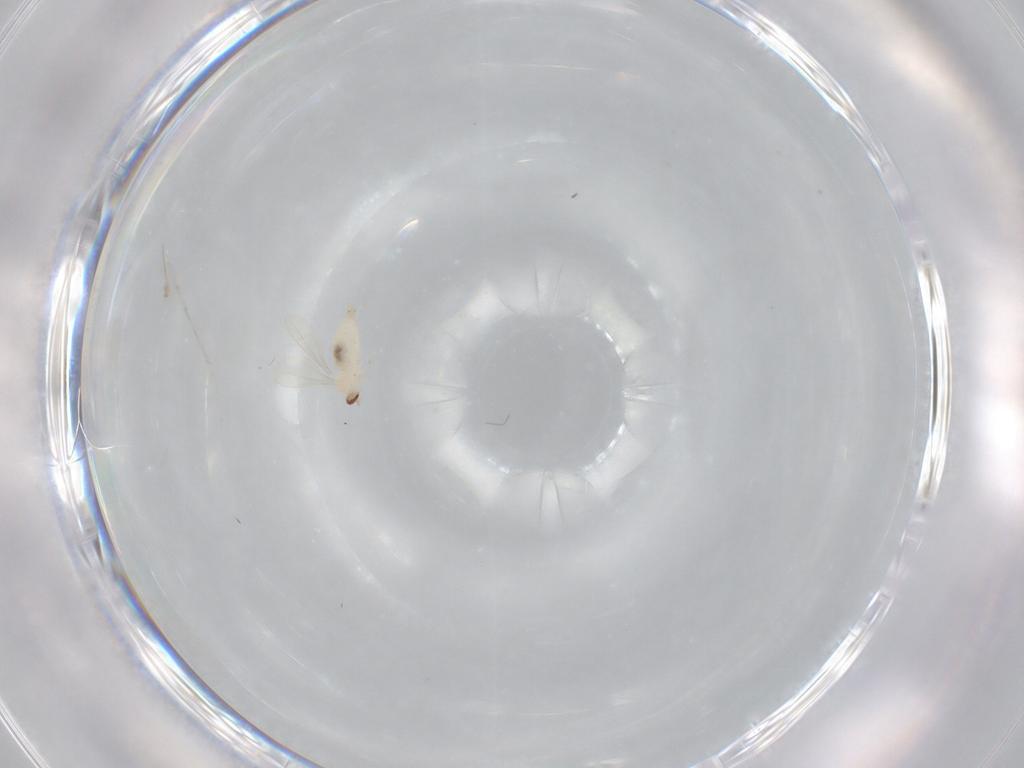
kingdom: Animalia
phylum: Arthropoda
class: Insecta
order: Diptera
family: Cecidomyiidae
